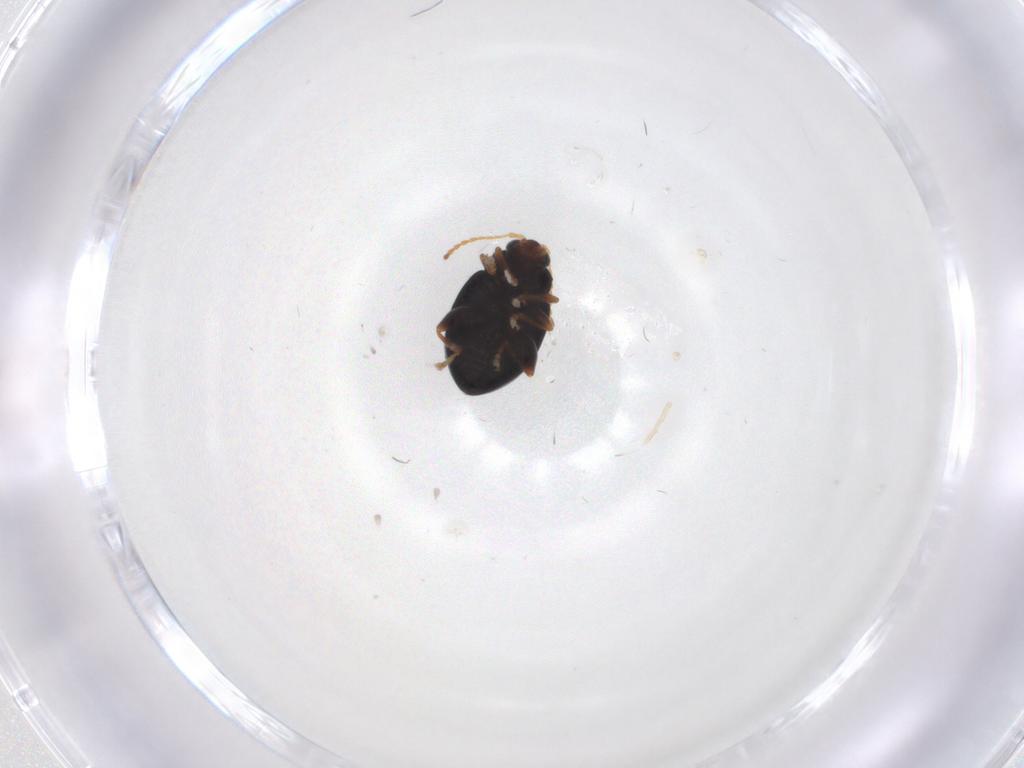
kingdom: Animalia
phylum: Arthropoda
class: Insecta
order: Coleoptera
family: Chrysomelidae
